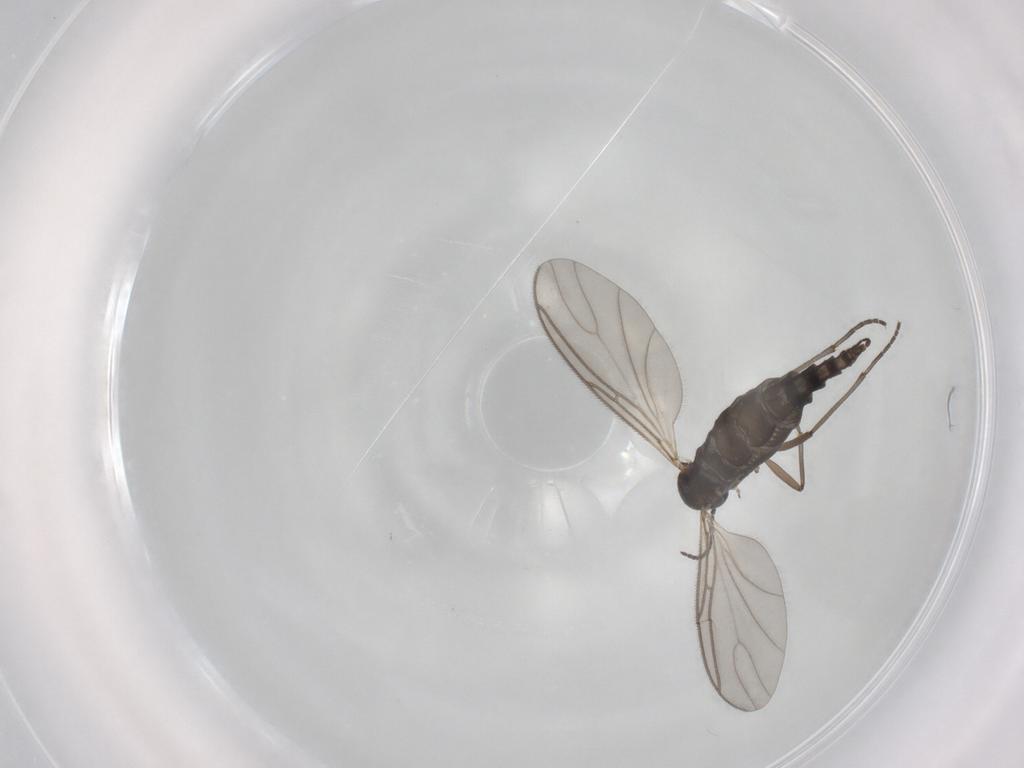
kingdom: Animalia
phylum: Arthropoda
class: Insecta
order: Diptera
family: Sciaridae
